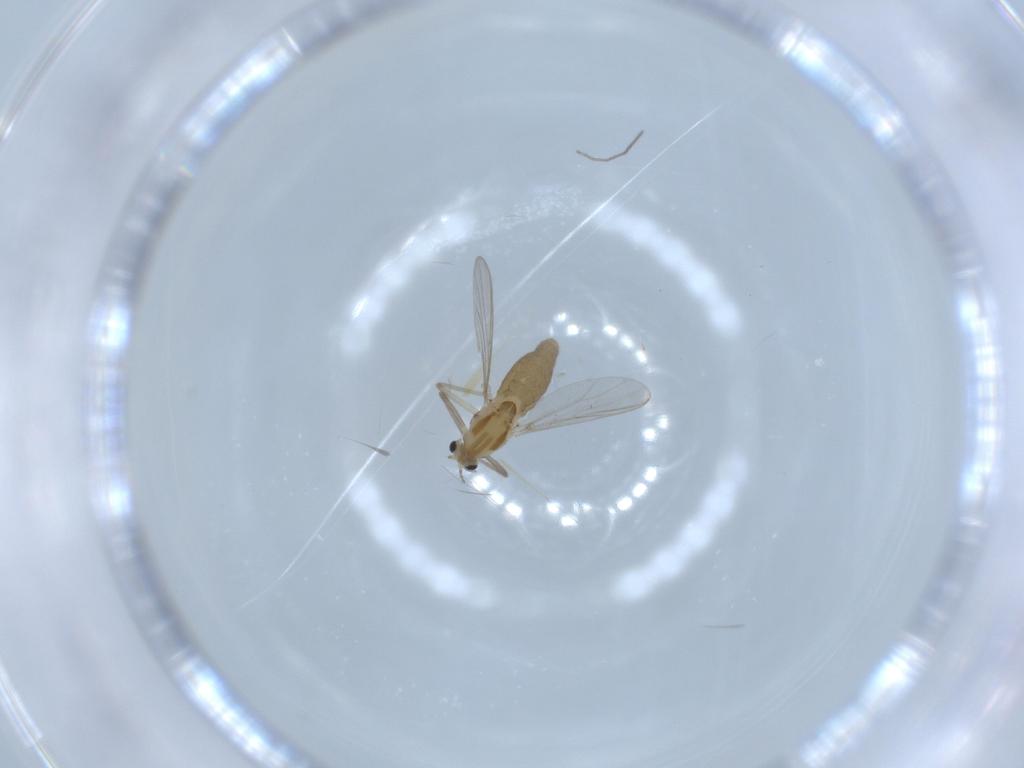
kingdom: Animalia
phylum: Arthropoda
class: Insecta
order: Diptera
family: Chironomidae
